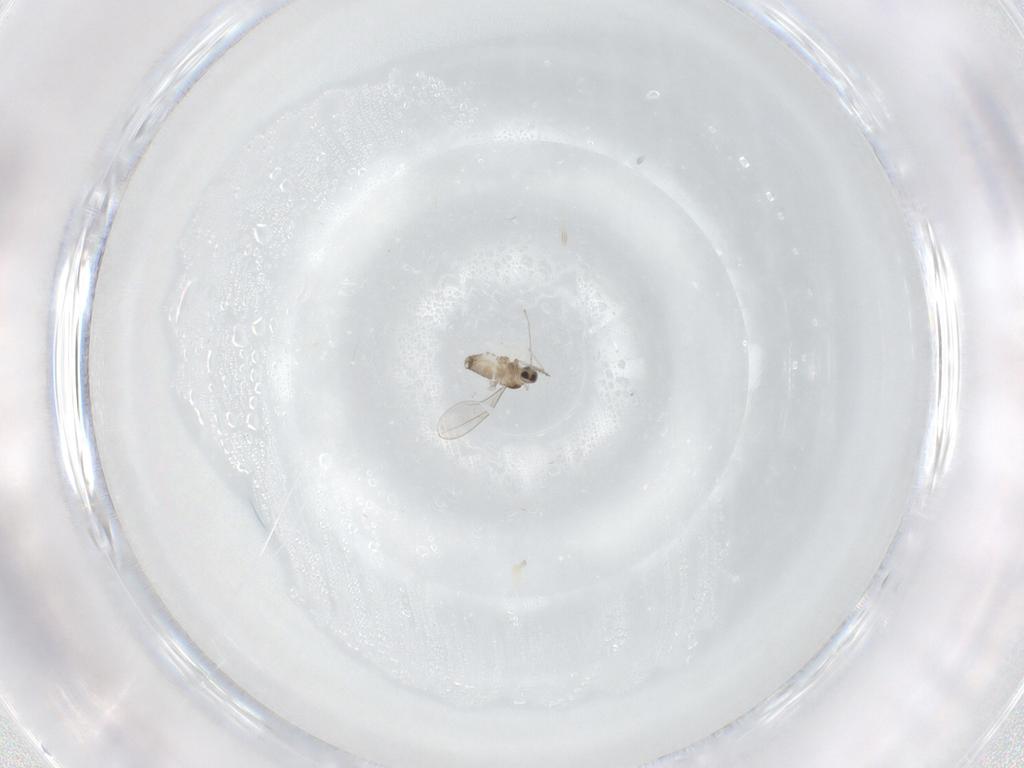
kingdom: Animalia
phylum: Arthropoda
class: Insecta
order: Diptera
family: Cecidomyiidae
